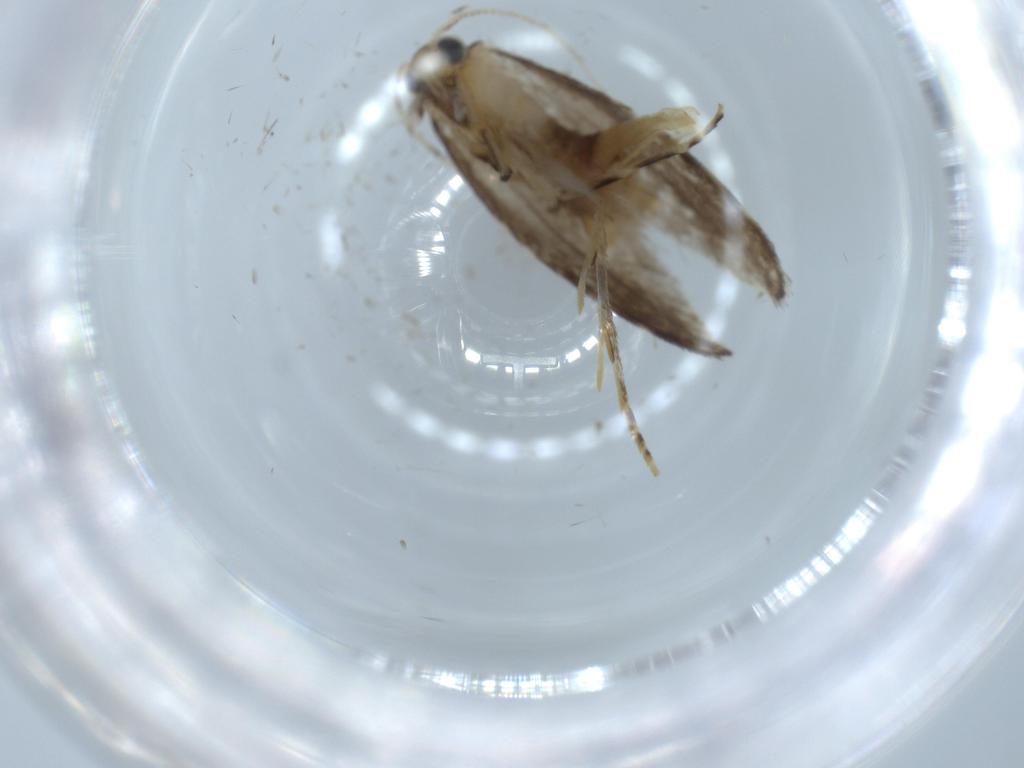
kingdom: Animalia
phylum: Arthropoda
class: Insecta
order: Lepidoptera
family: Tineidae
